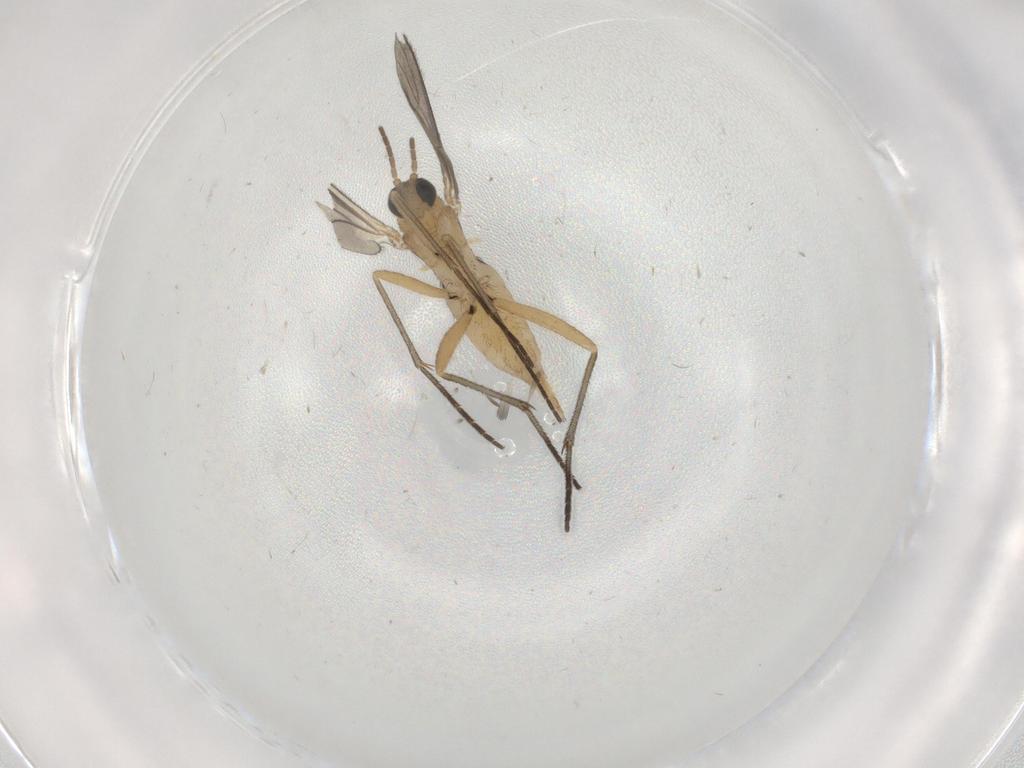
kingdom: Animalia
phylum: Arthropoda
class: Insecta
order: Diptera
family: Sciaridae
